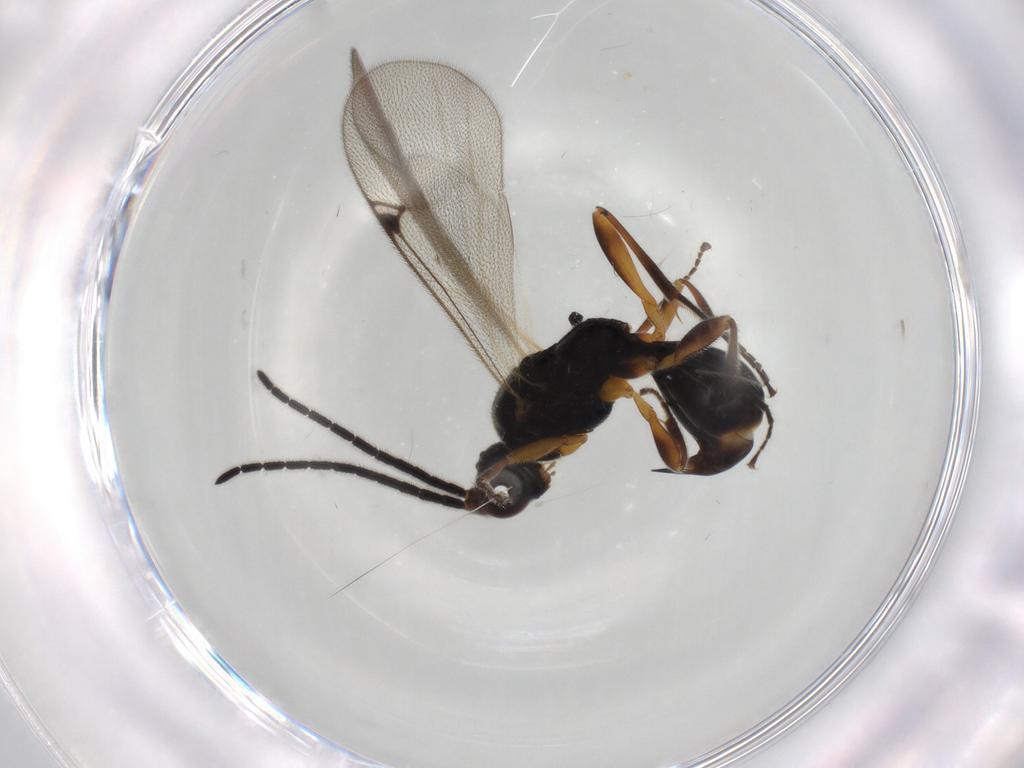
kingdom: Animalia
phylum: Arthropoda
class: Insecta
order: Hymenoptera
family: Proctotrupidae
